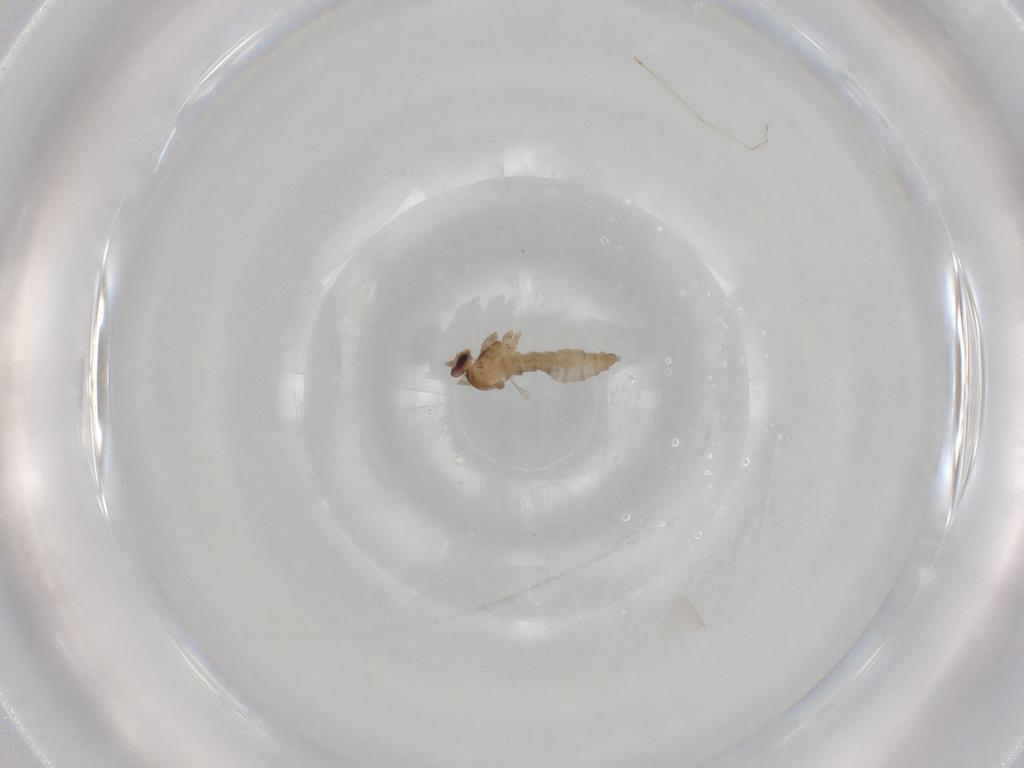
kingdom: Animalia
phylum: Arthropoda
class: Insecta
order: Diptera
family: Cecidomyiidae
